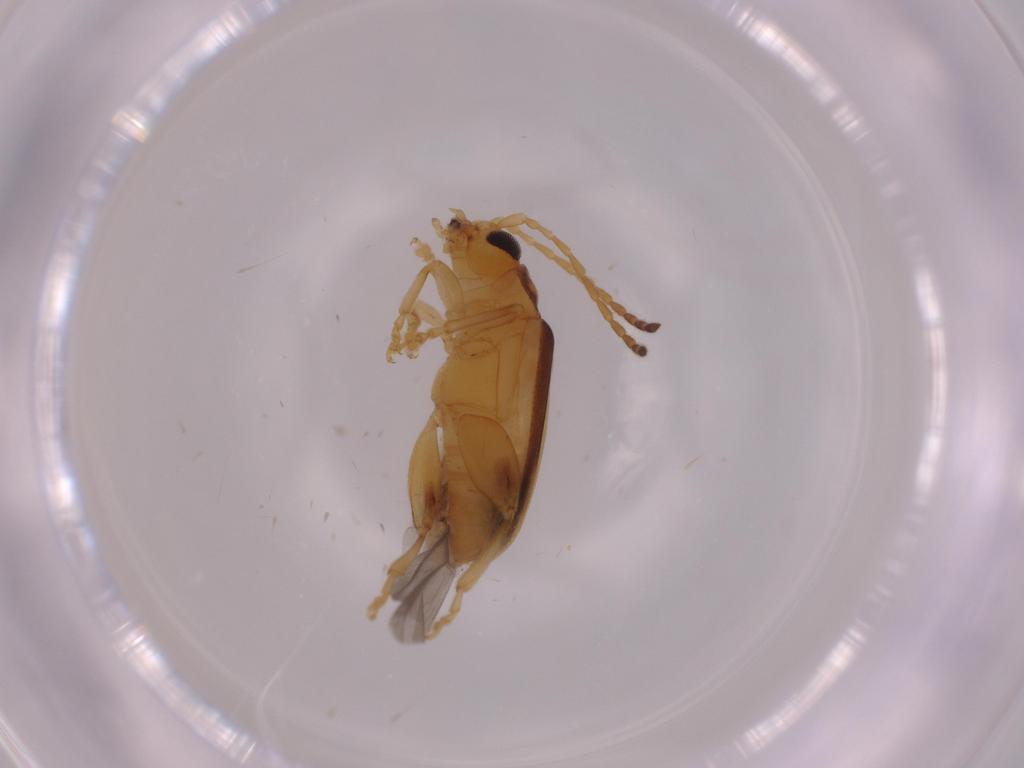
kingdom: Animalia
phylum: Arthropoda
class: Insecta
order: Coleoptera
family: Chrysomelidae
